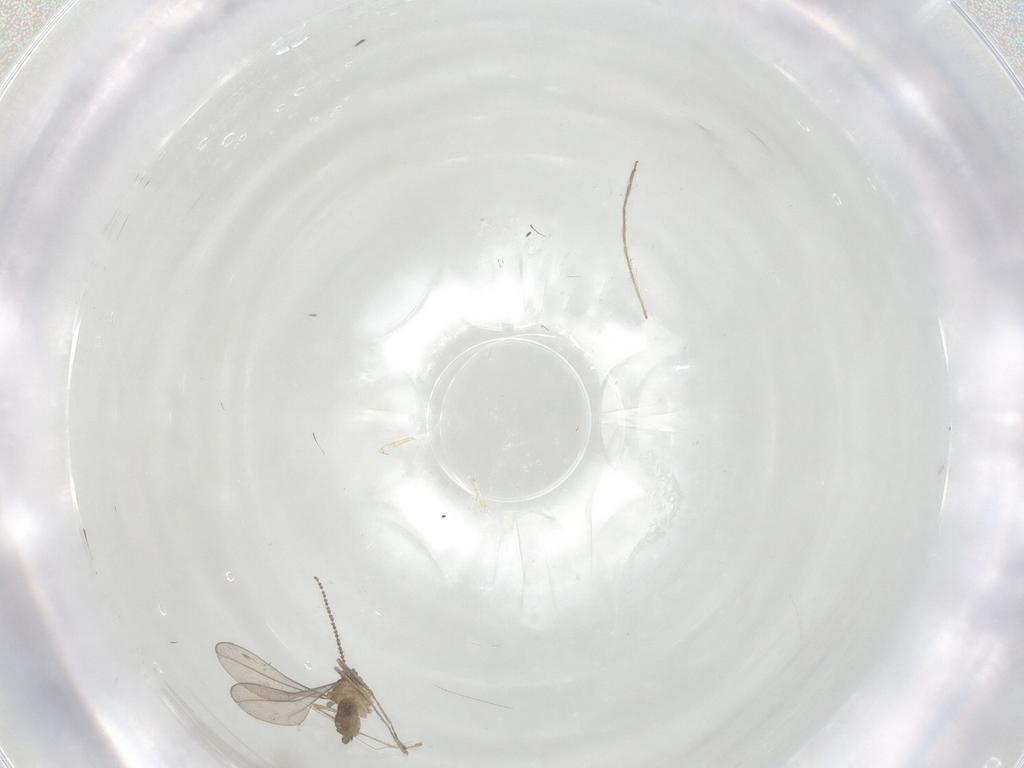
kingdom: Animalia
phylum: Arthropoda
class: Insecta
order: Diptera
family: Cecidomyiidae
